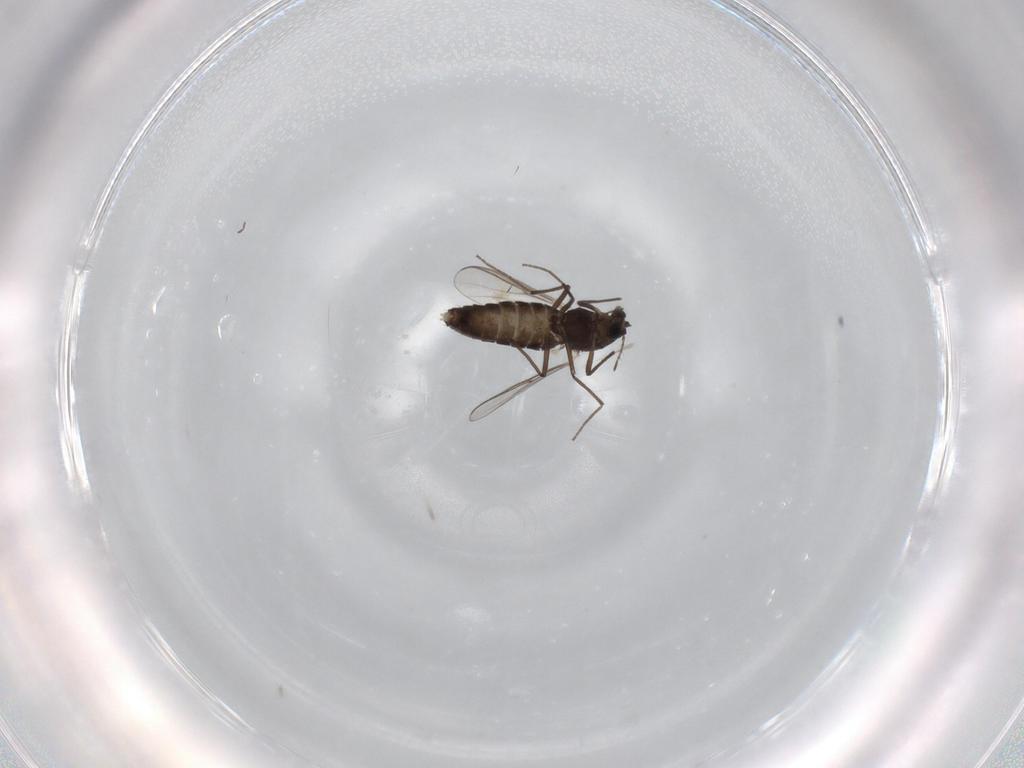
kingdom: Animalia
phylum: Arthropoda
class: Insecta
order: Diptera
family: Chironomidae
